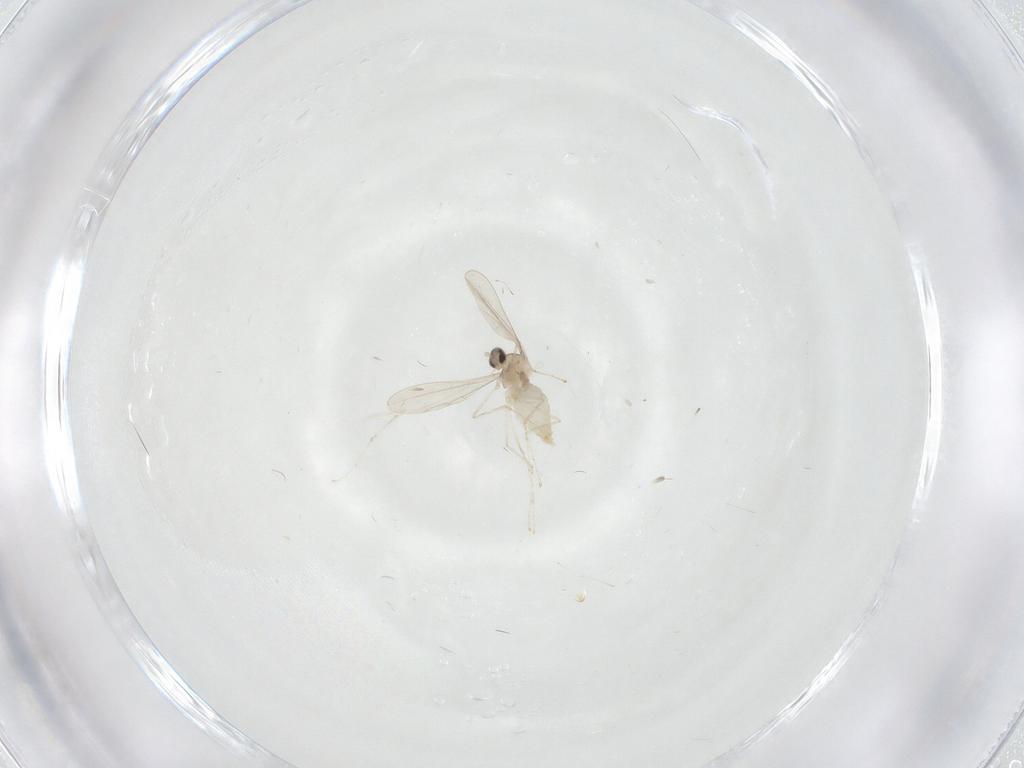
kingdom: Animalia
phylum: Arthropoda
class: Insecta
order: Diptera
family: Cecidomyiidae
